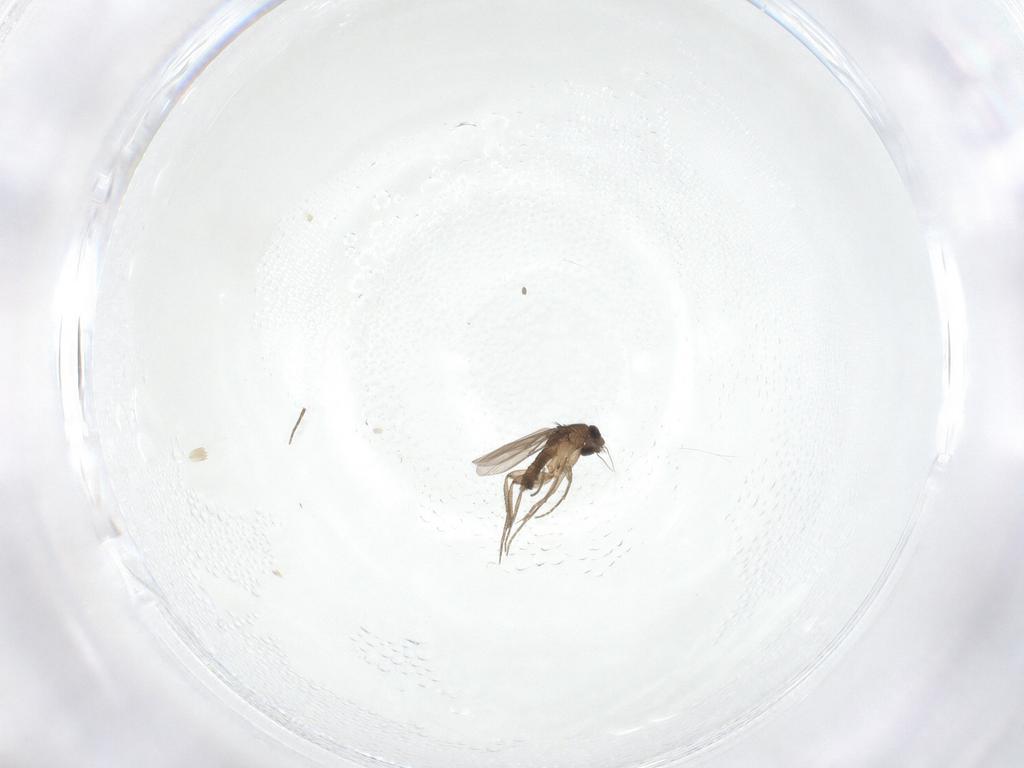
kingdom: Animalia
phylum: Arthropoda
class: Insecta
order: Diptera
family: Phoridae
